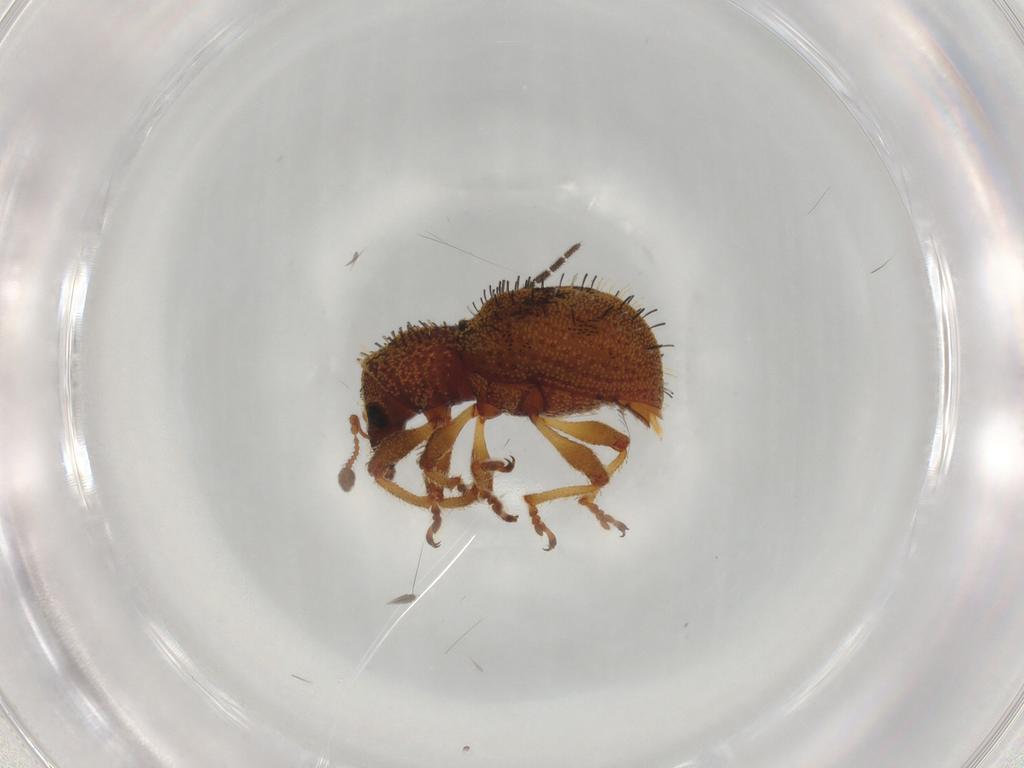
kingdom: Animalia
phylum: Arthropoda
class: Insecta
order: Coleoptera
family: Curculionidae
